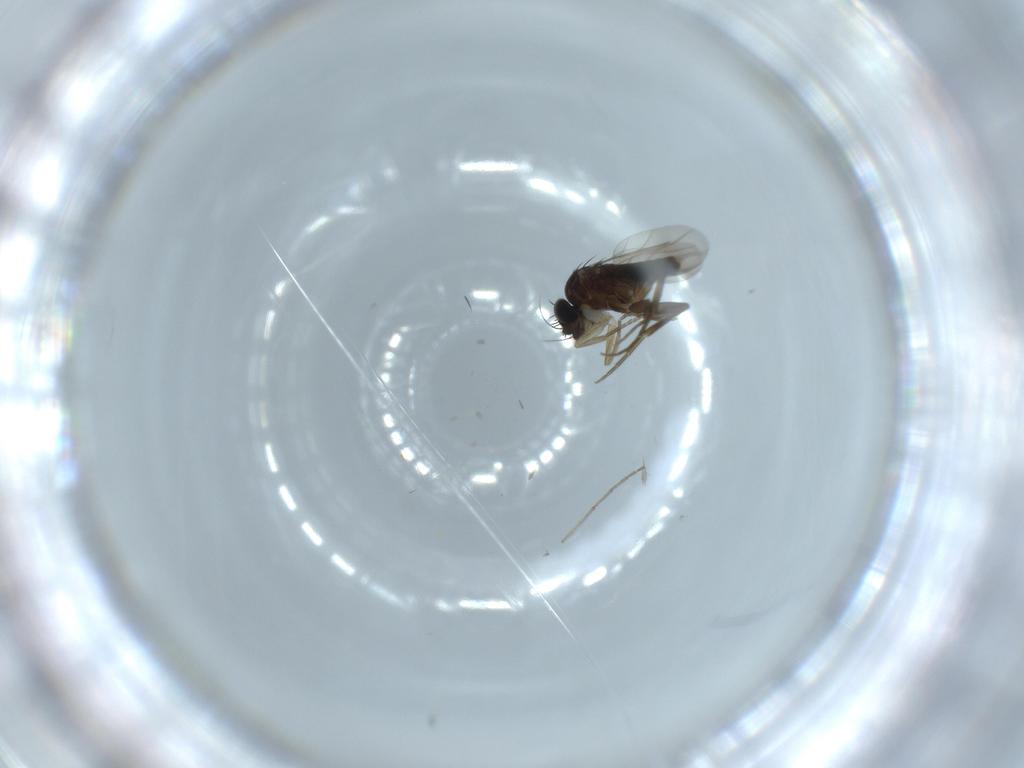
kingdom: Animalia
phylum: Arthropoda
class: Insecta
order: Diptera
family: Phoridae
